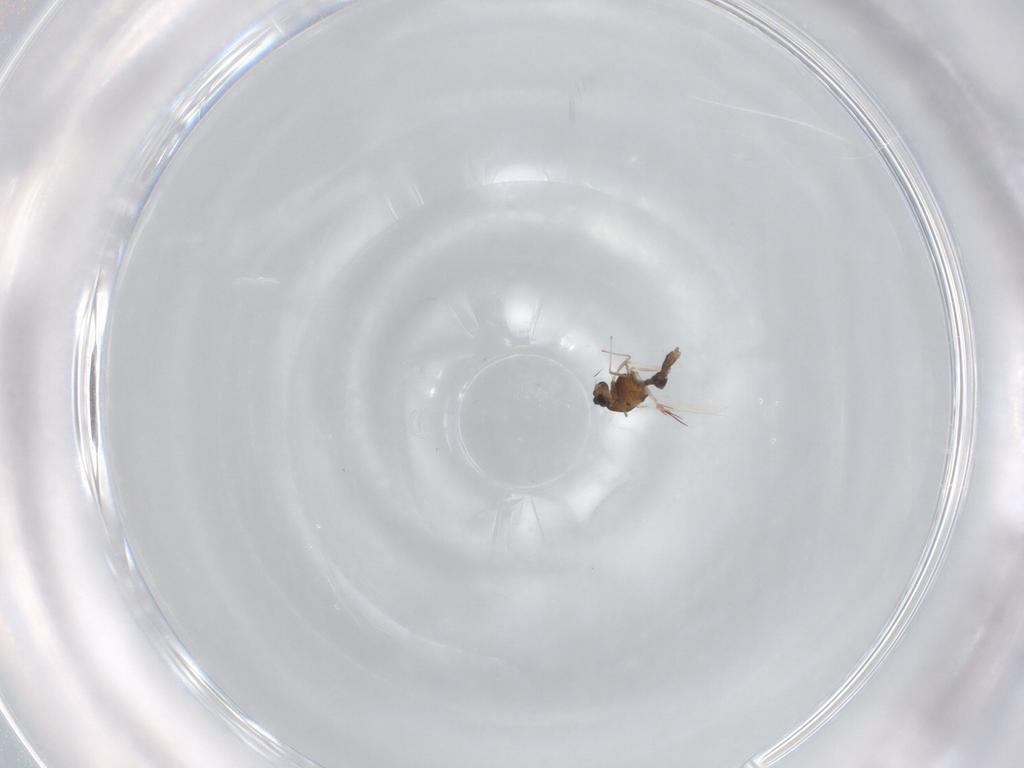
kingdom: Animalia
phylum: Arthropoda
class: Insecta
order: Diptera
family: Chironomidae
